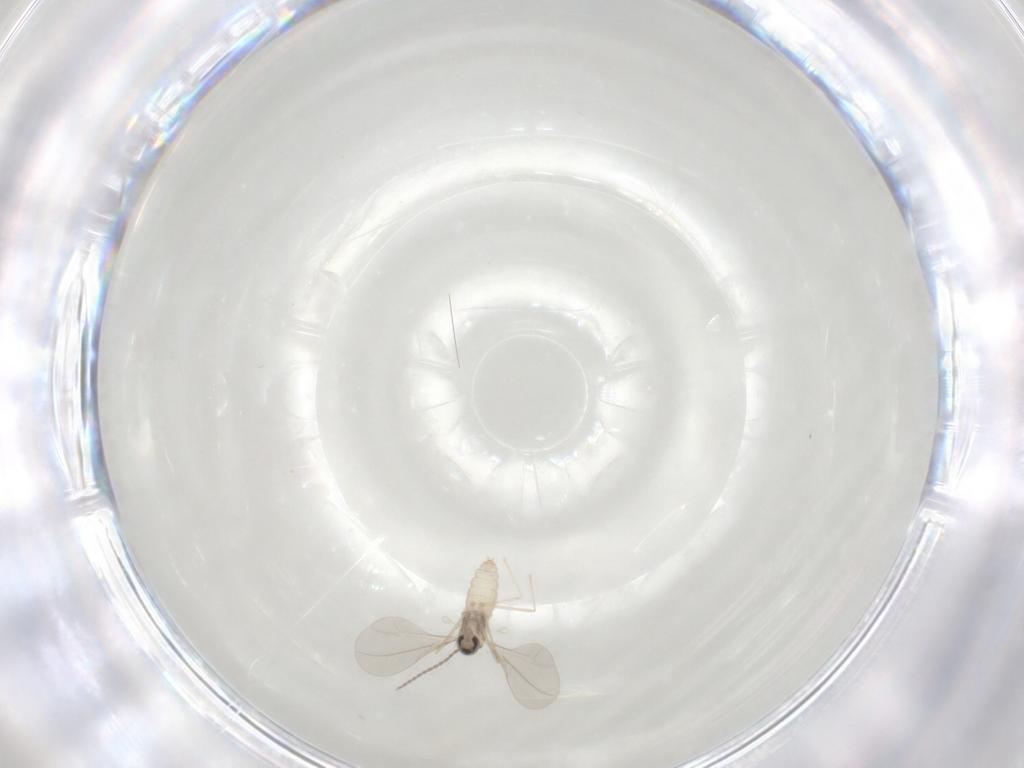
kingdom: Animalia
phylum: Arthropoda
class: Insecta
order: Diptera
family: Cecidomyiidae
